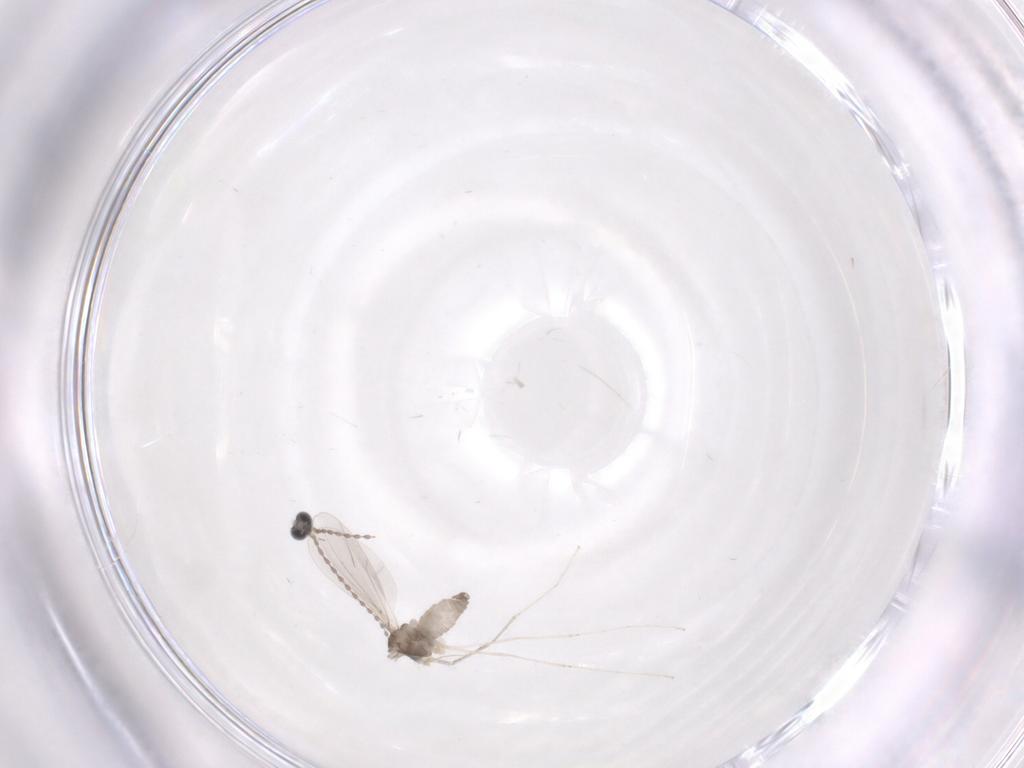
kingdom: Animalia
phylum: Arthropoda
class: Insecta
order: Diptera
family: Cecidomyiidae
